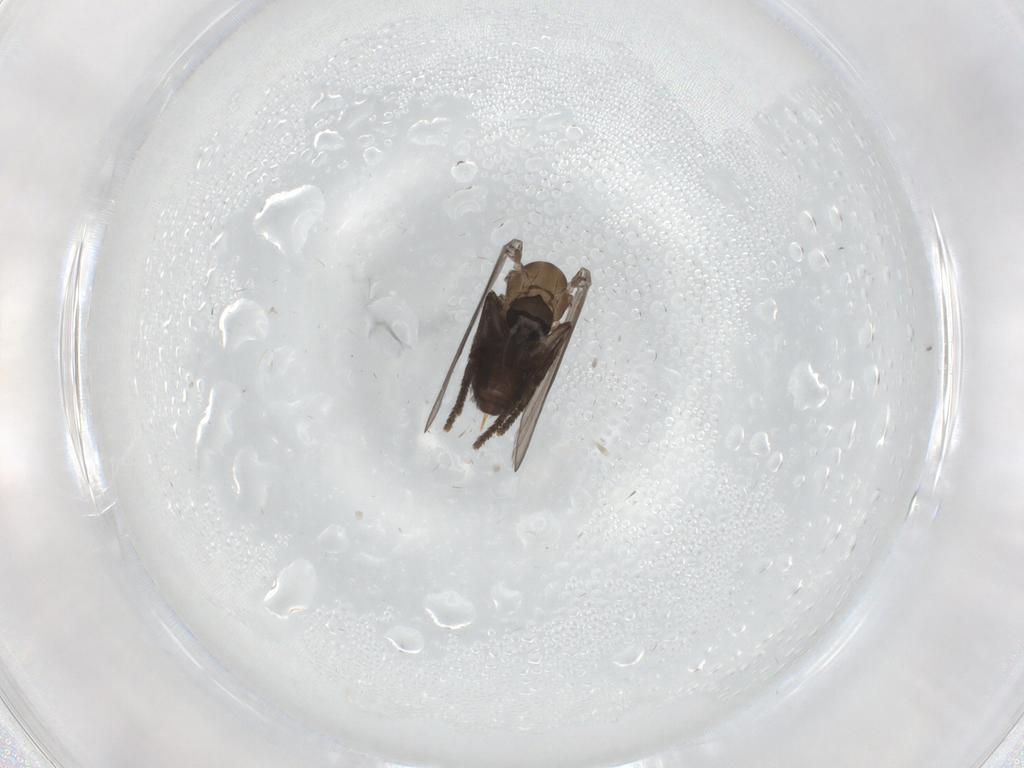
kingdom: Animalia
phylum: Arthropoda
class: Insecta
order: Diptera
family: Psychodidae
